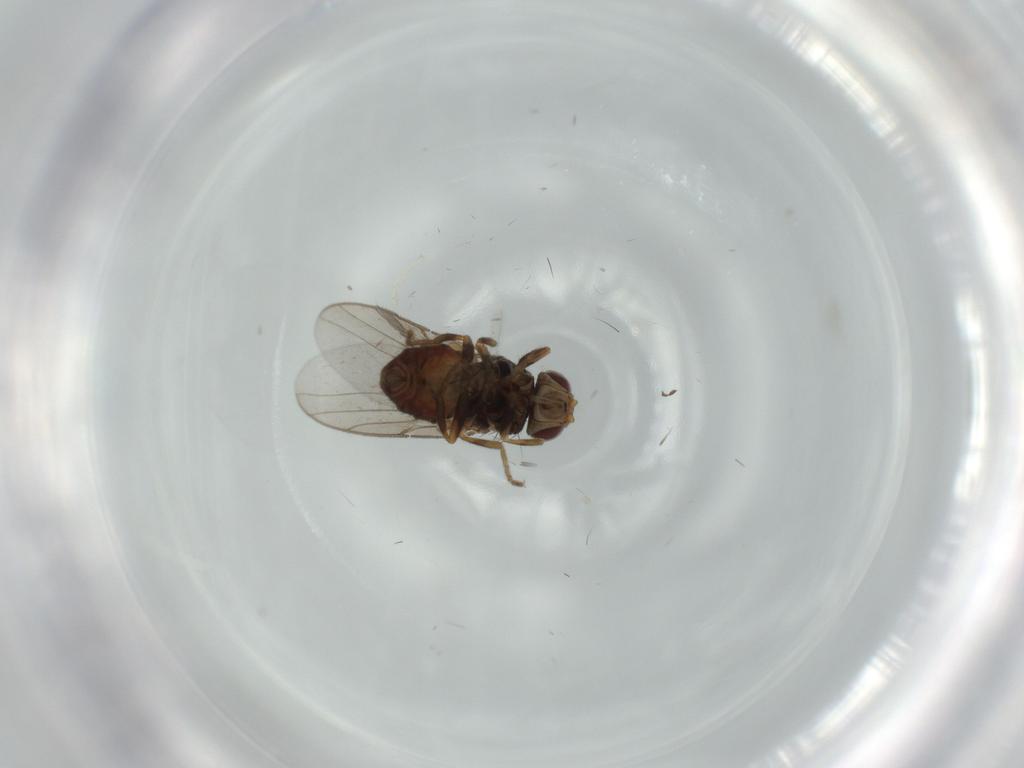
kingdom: Animalia
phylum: Arthropoda
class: Insecta
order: Diptera
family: Chloropidae
